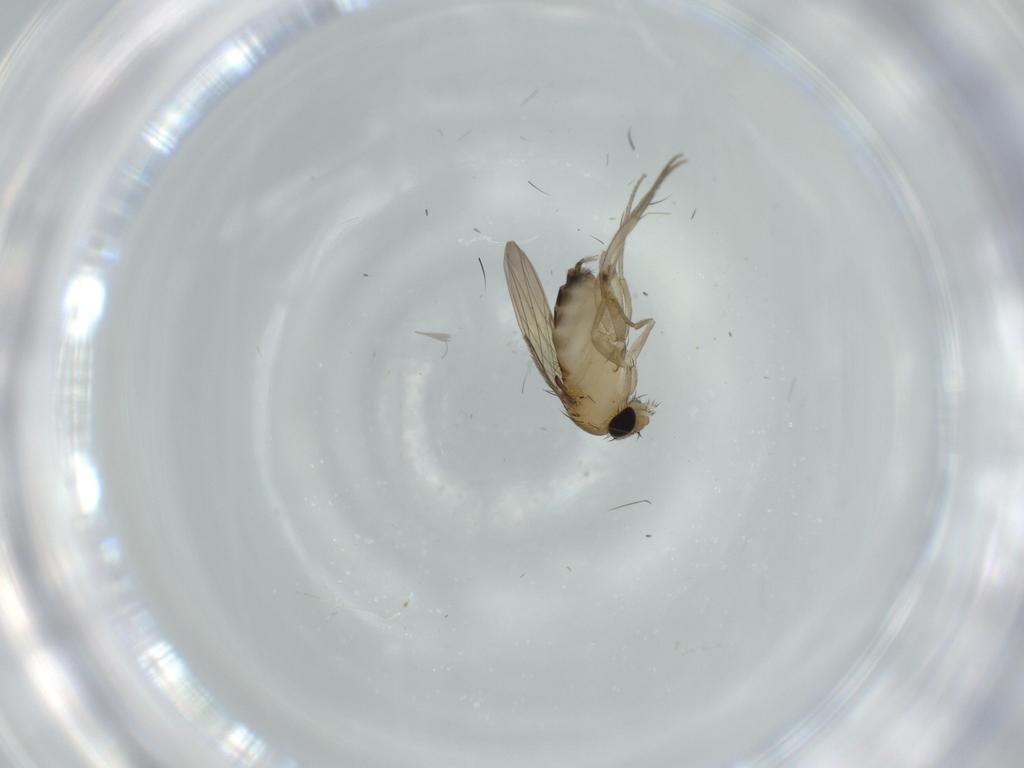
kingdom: Animalia
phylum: Arthropoda
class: Insecta
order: Diptera
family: Phoridae
